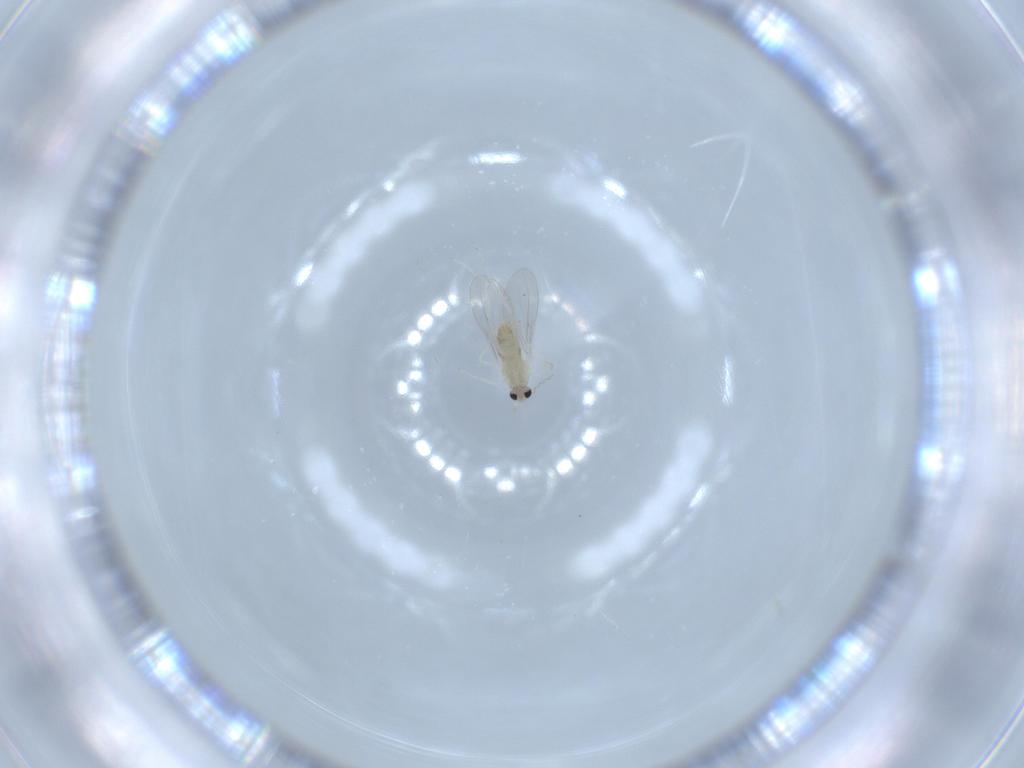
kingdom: Animalia
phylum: Arthropoda
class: Insecta
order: Diptera
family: Cecidomyiidae
